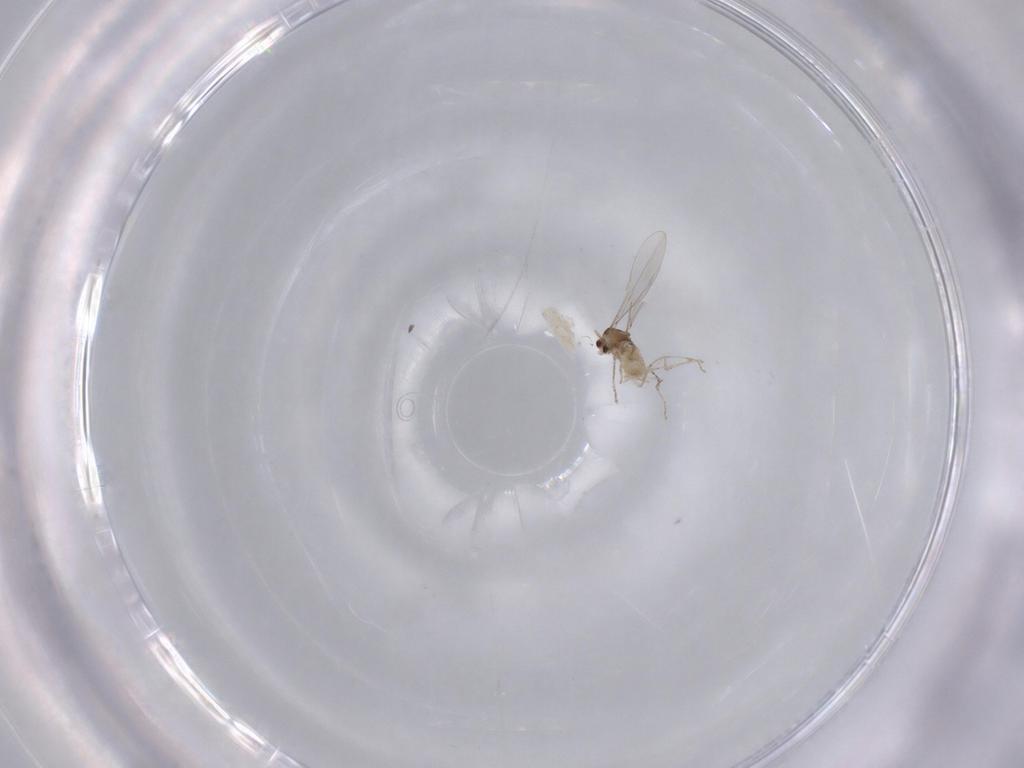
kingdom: Animalia
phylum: Arthropoda
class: Insecta
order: Diptera
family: Cecidomyiidae
